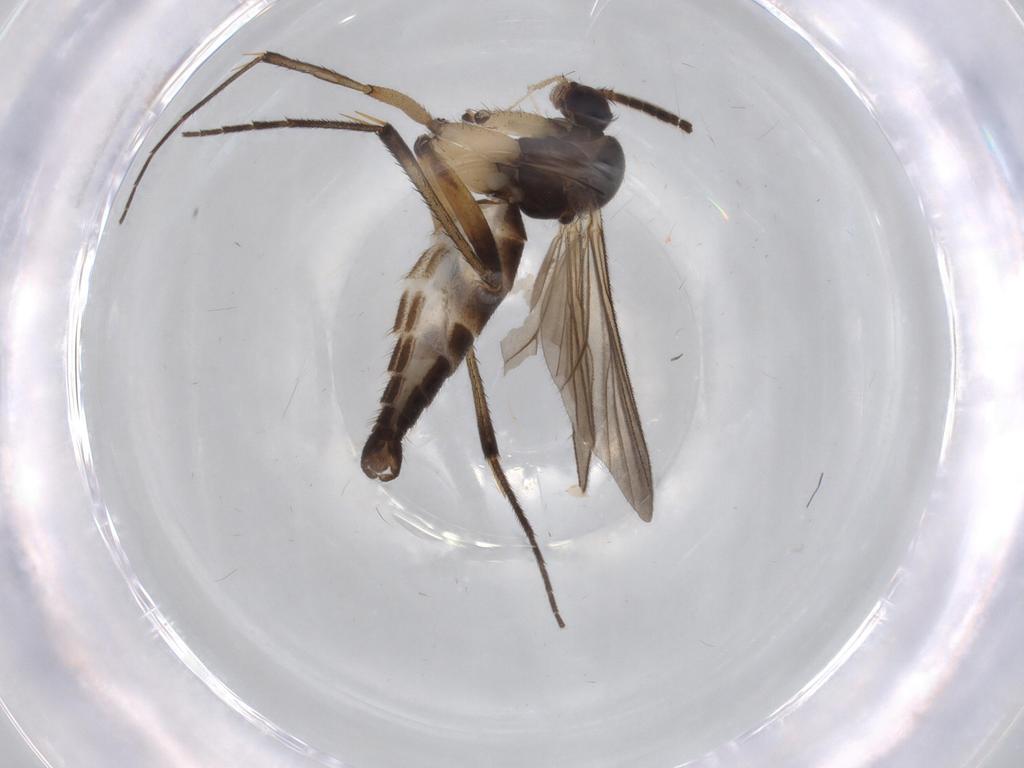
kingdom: Animalia
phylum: Arthropoda
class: Insecta
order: Diptera
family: Mycetophilidae
